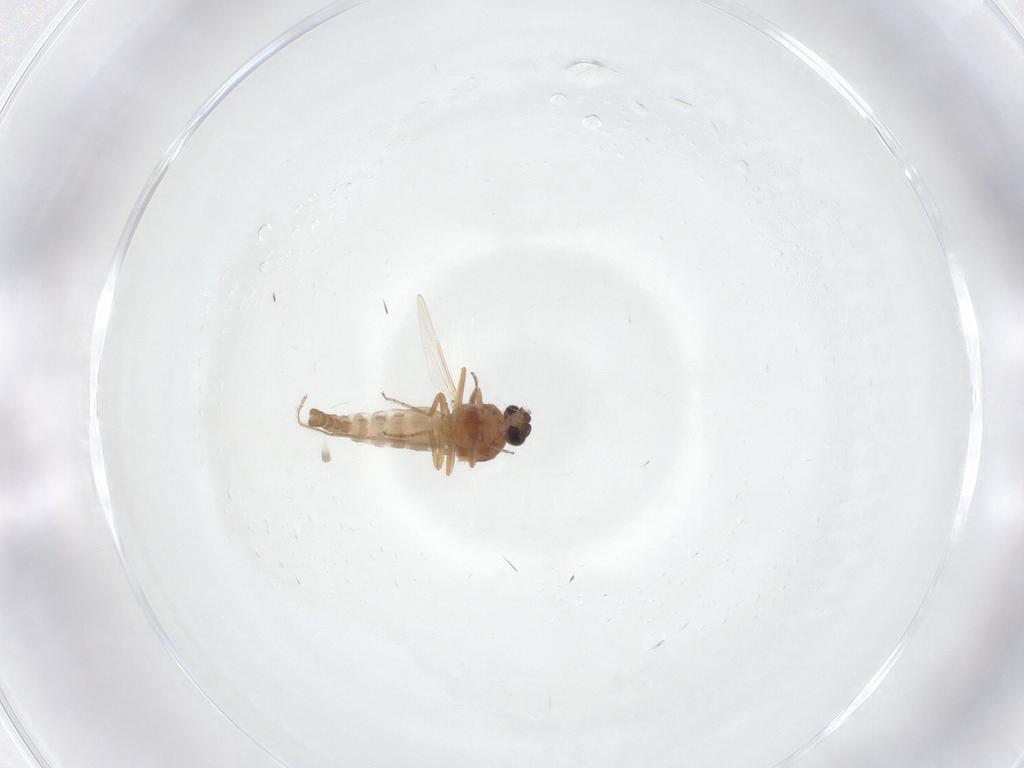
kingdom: Animalia
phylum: Arthropoda
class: Insecta
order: Diptera
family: Ceratopogonidae
